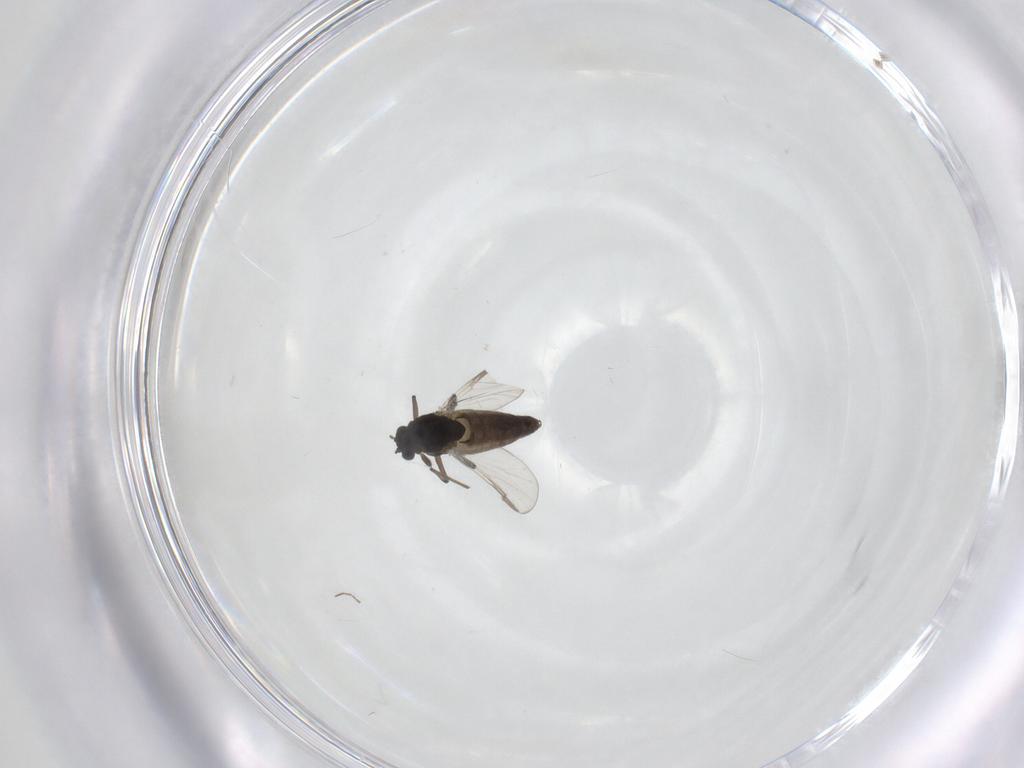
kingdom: Animalia
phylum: Arthropoda
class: Insecta
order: Diptera
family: Chironomidae
